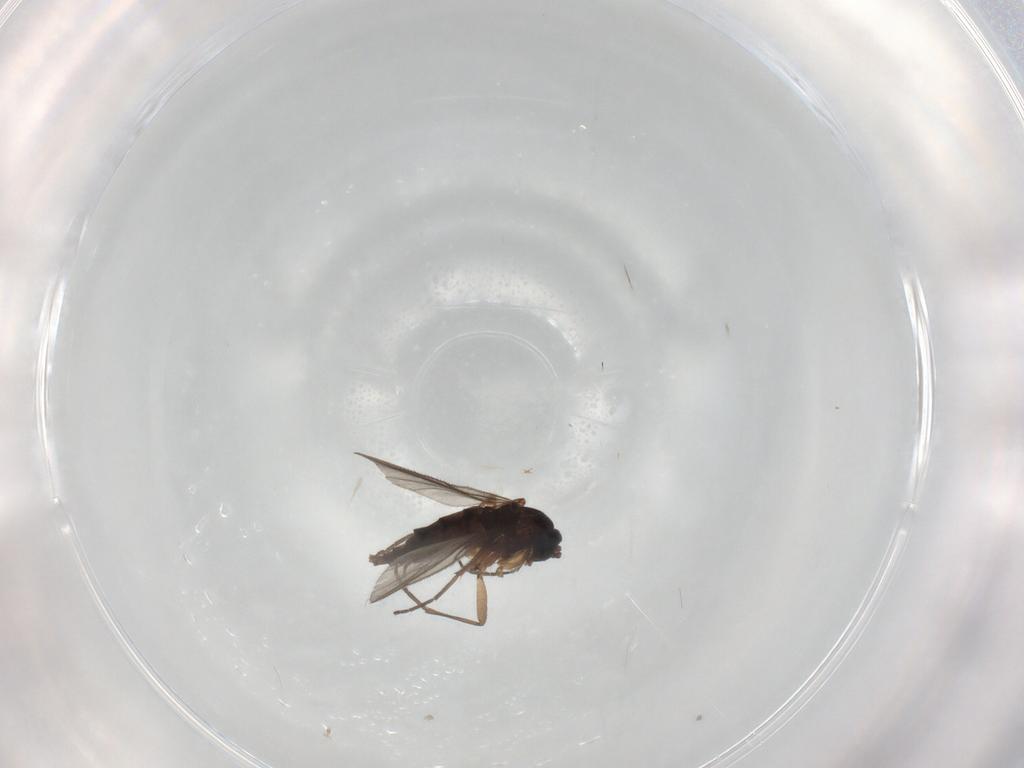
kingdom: Animalia
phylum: Arthropoda
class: Insecta
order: Diptera
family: Sciaridae
